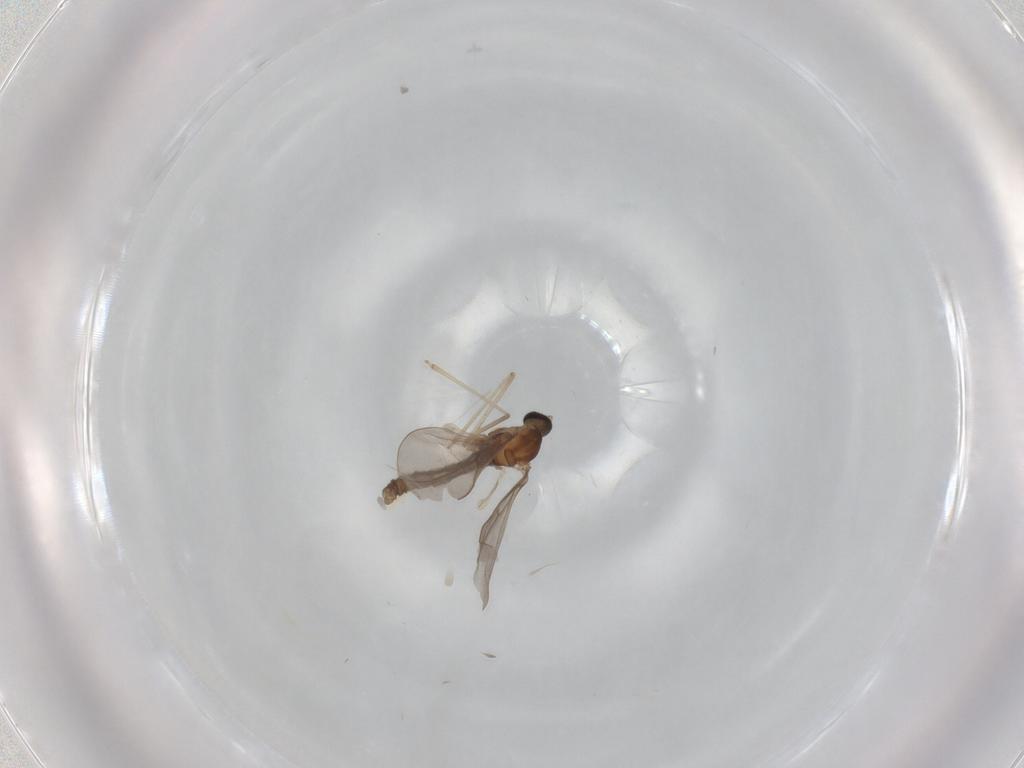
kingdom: Animalia
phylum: Arthropoda
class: Insecta
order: Diptera
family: Cecidomyiidae
